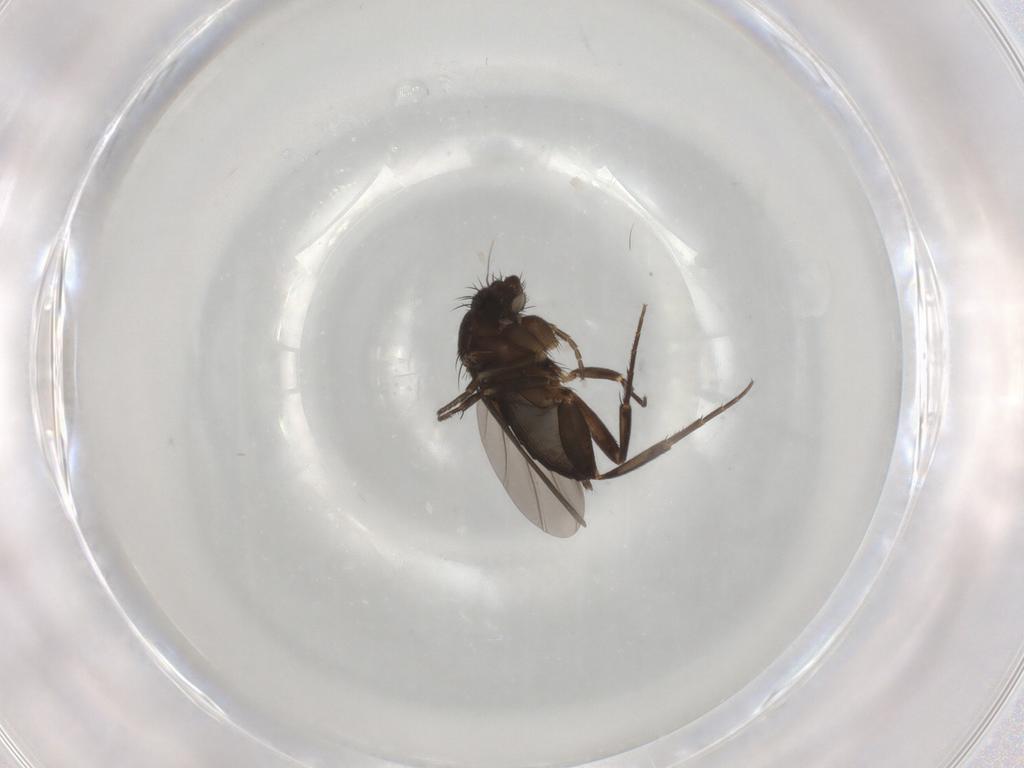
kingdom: Animalia
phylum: Arthropoda
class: Insecta
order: Diptera
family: Phoridae
